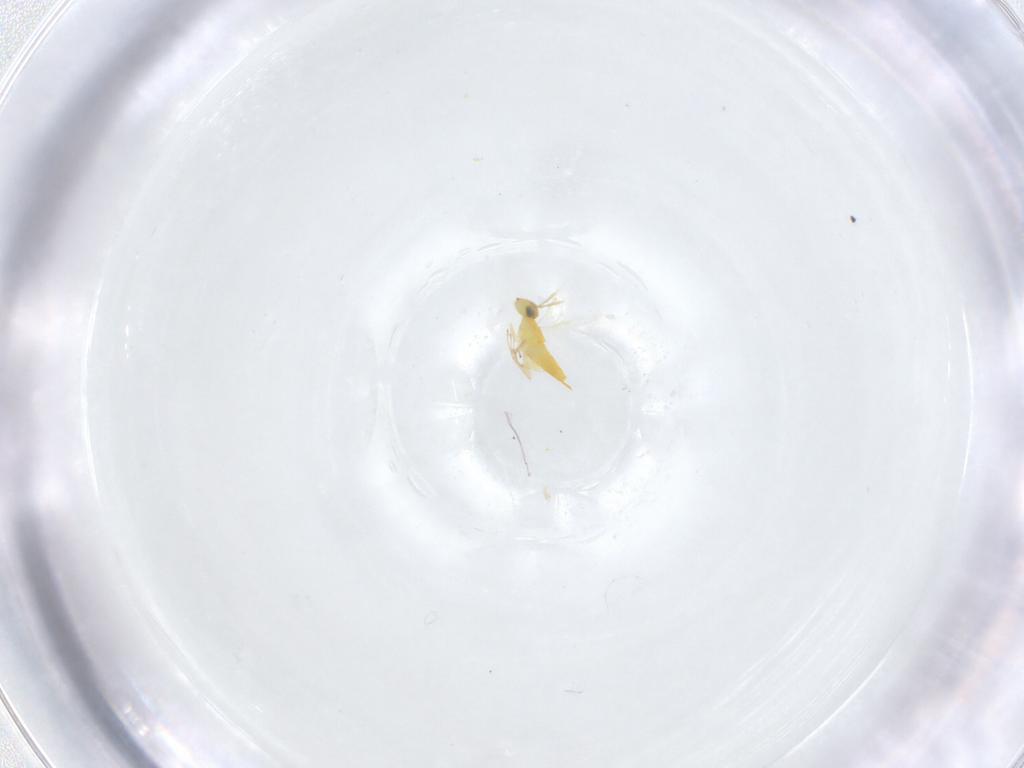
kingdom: Animalia
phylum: Arthropoda
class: Insecta
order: Hymenoptera
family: Aphelinidae
